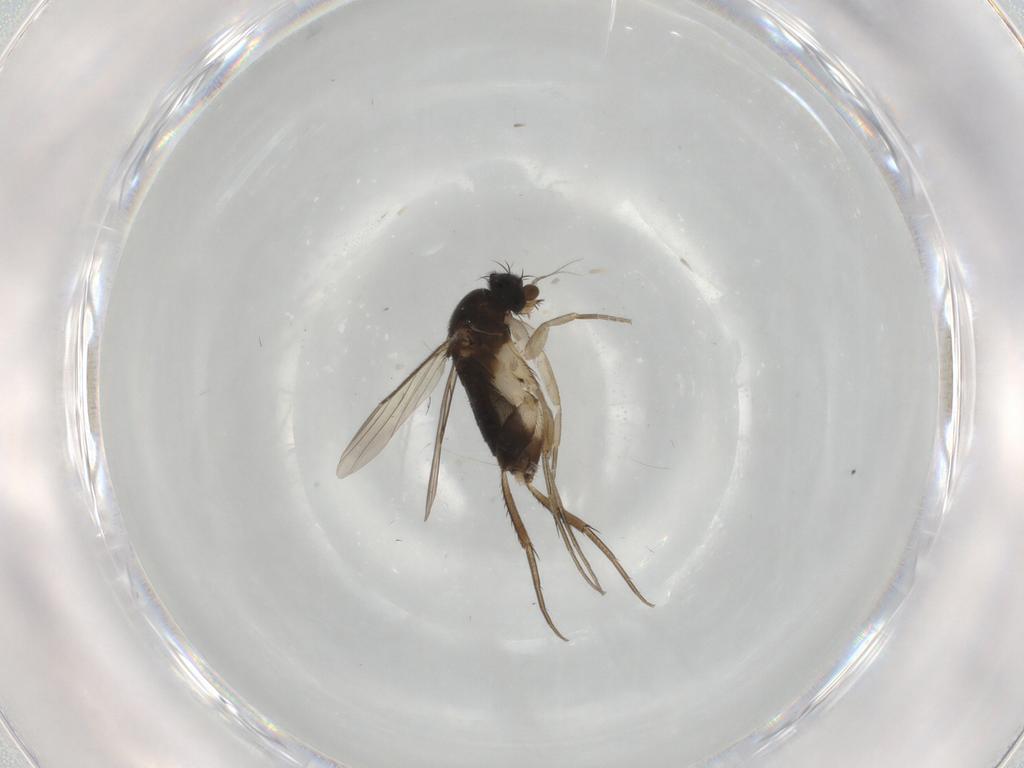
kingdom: Animalia
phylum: Arthropoda
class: Insecta
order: Diptera
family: Phoridae
